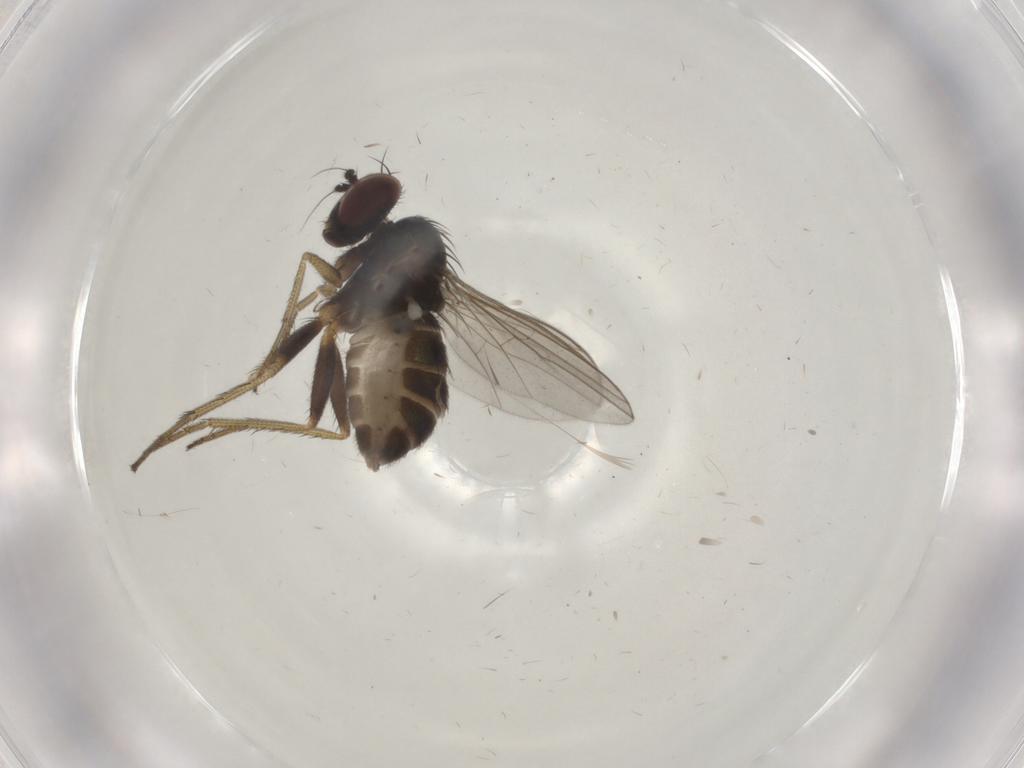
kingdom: Animalia
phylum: Arthropoda
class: Insecta
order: Diptera
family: Dolichopodidae
